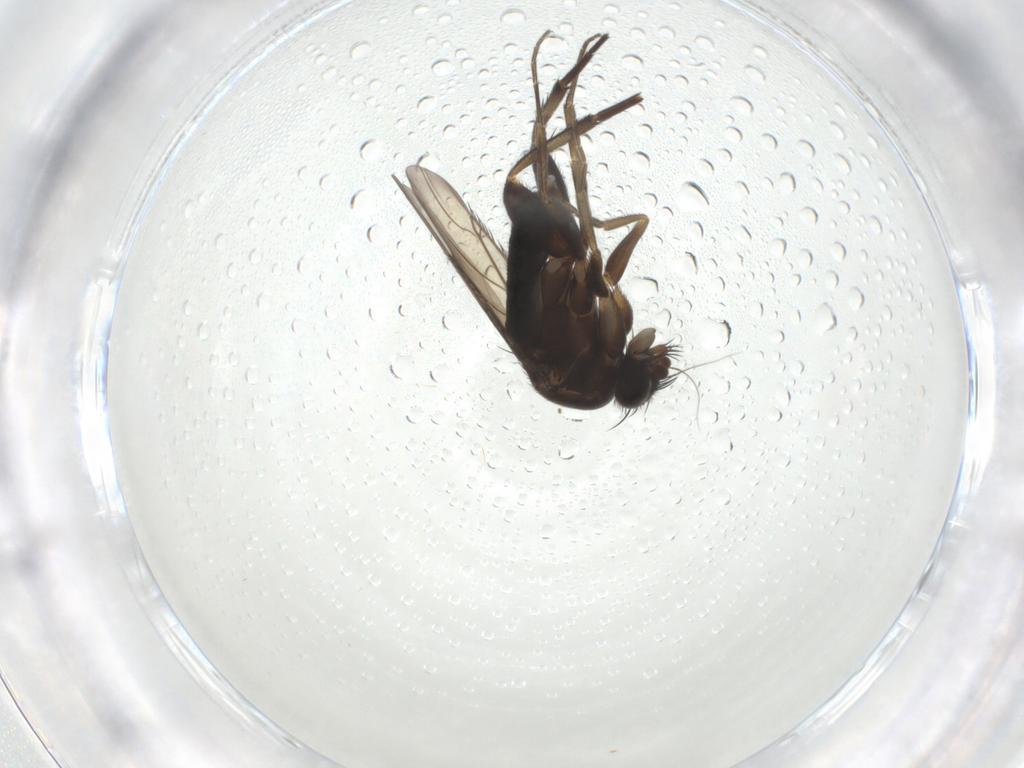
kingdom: Animalia
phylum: Arthropoda
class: Insecta
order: Diptera
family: Phoridae
